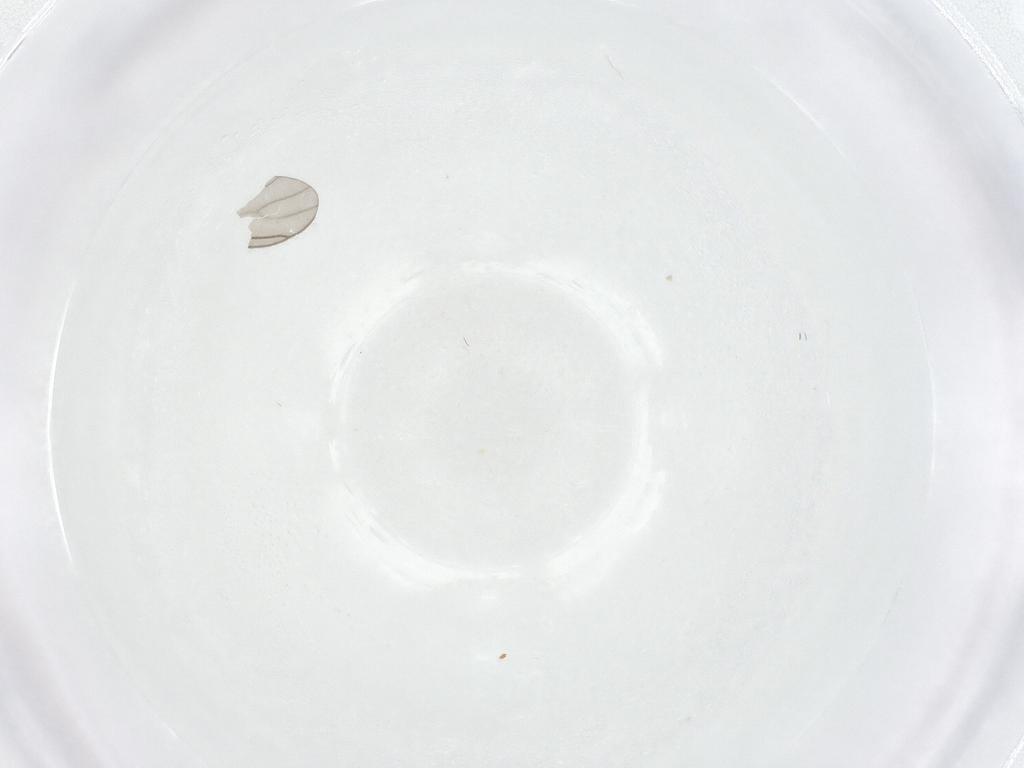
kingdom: Animalia
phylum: Arthropoda
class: Insecta
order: Diptera
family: Sciaridae
